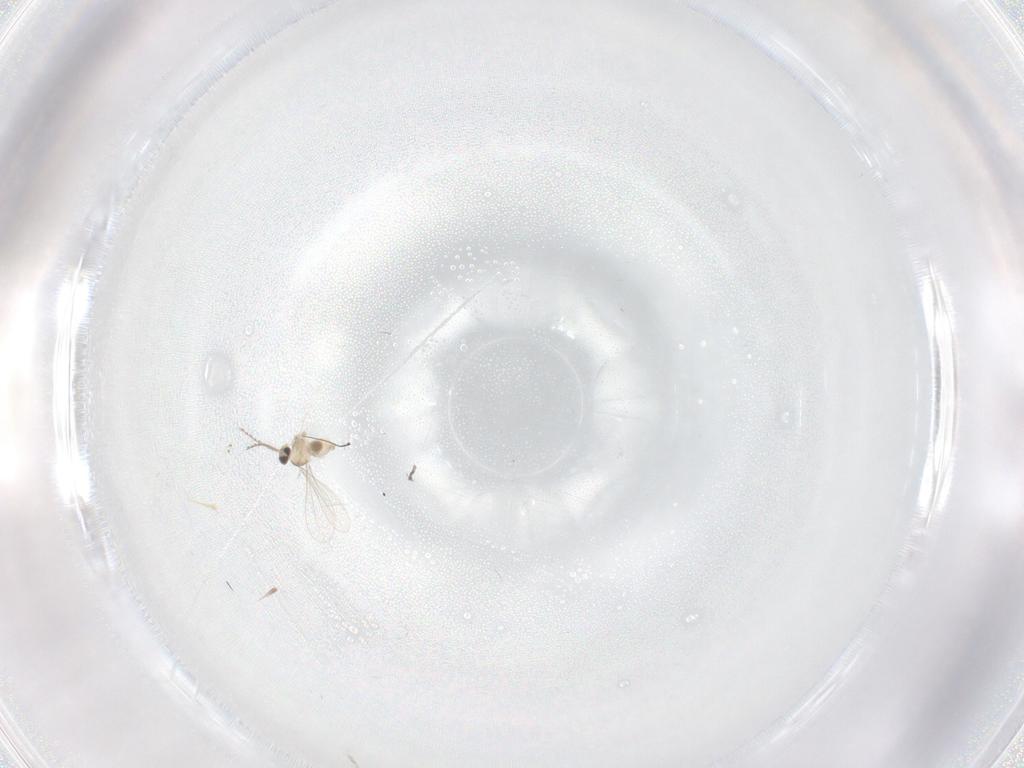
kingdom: Animalia
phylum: Arthropoda
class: Insecta
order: Diptera
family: Cecidomyiidae
